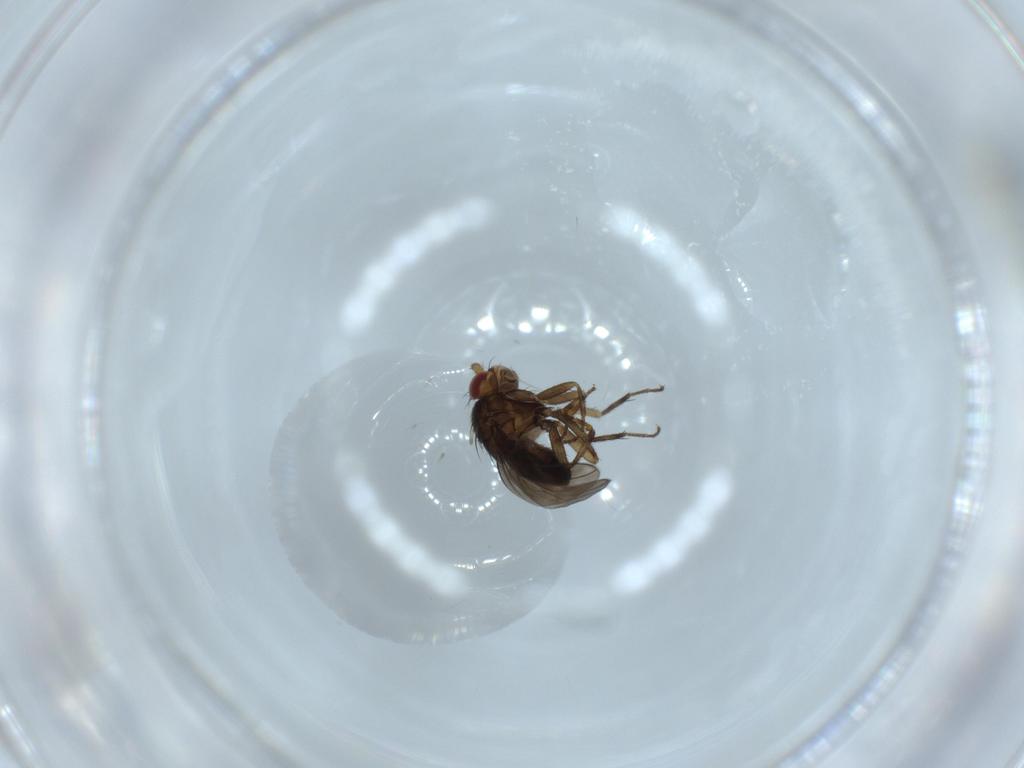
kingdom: Animalia
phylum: Arthropoda
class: Insecta
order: Diptera
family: Sphaeroceridae
